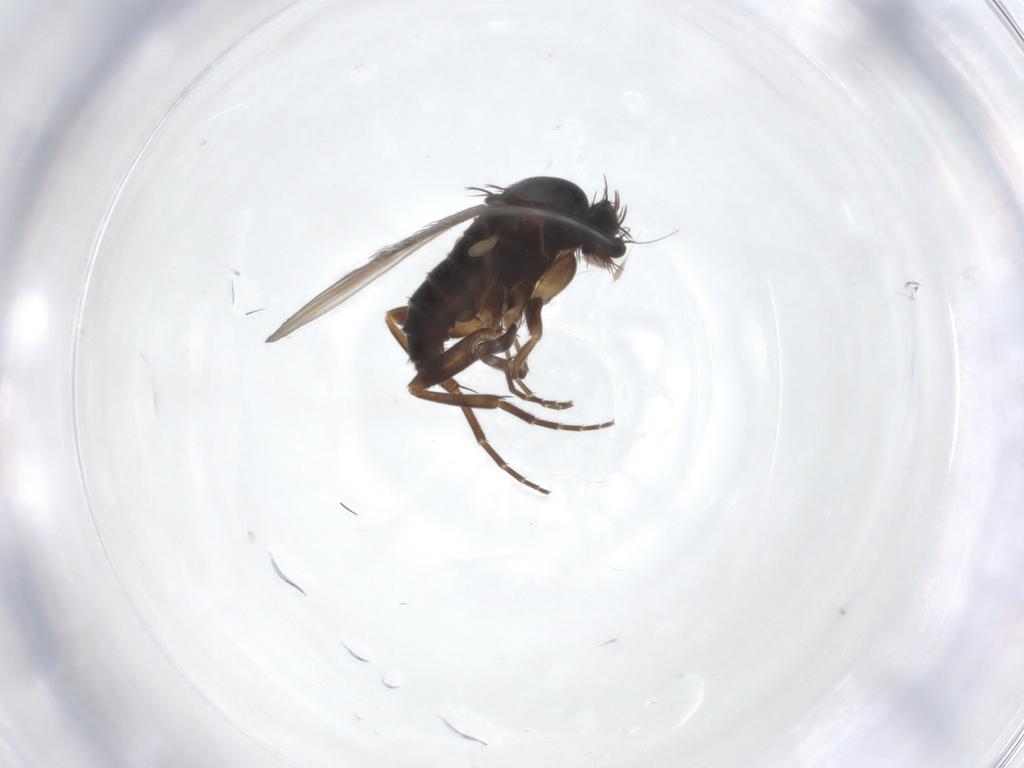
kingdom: Animalia
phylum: Arthropoda
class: Insecta
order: Diptera
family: Phoridae
